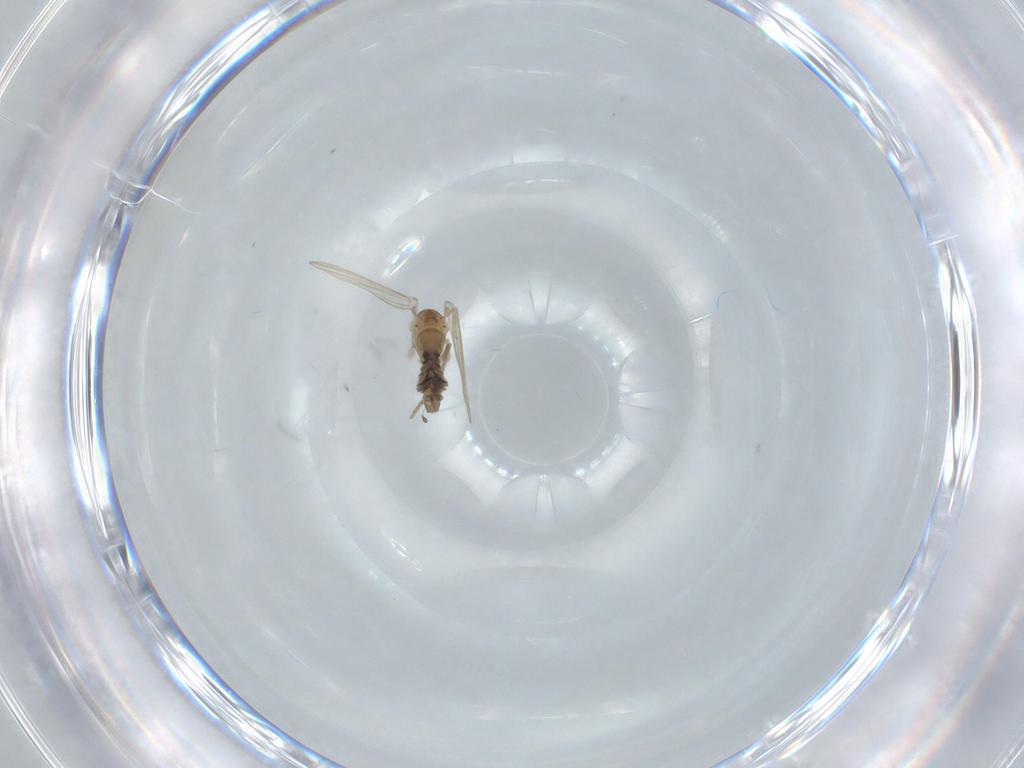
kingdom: Animalia
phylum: Arthropoda
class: Insecta
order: Diptera
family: Psychodidae
